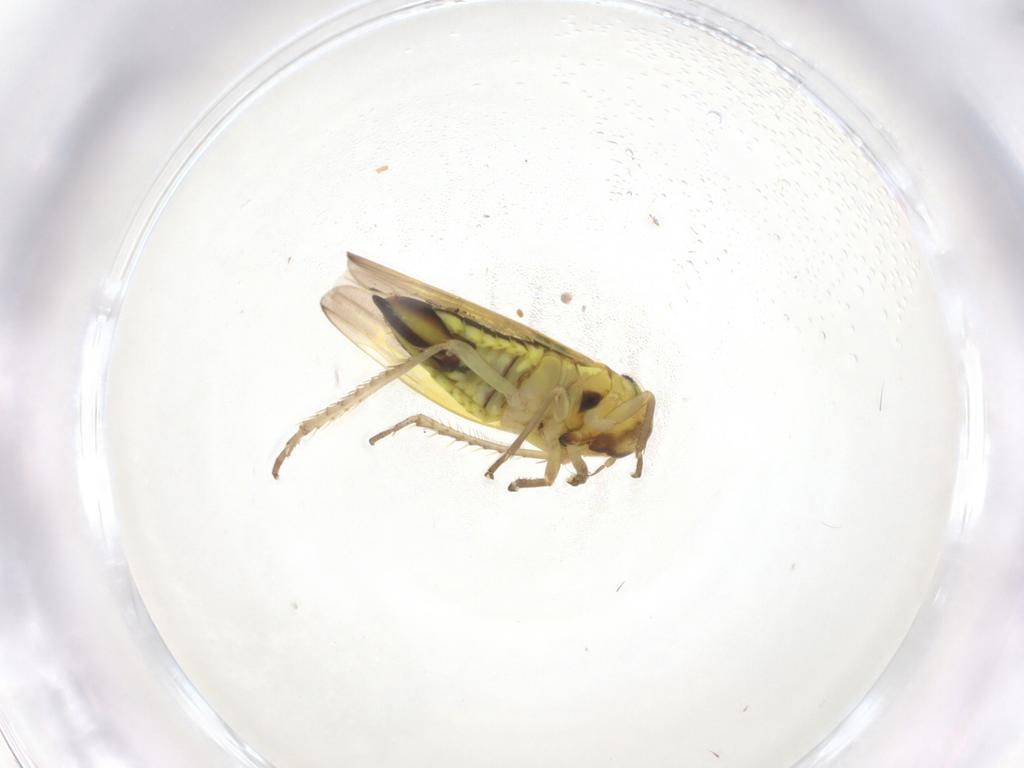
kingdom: Animalia
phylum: Arthropoda
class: Insecta
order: Hemiptera
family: Cicadellidae
